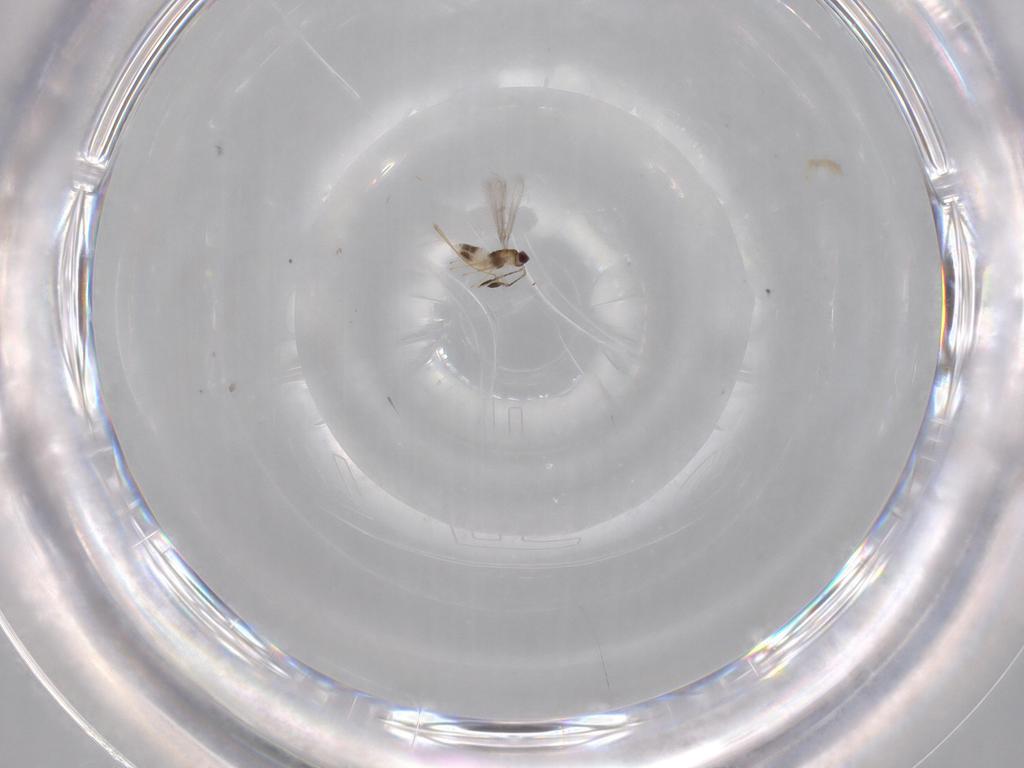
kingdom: Animalia
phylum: Arthropoda
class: Insecta
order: Hymenoptera
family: Mymaridae
